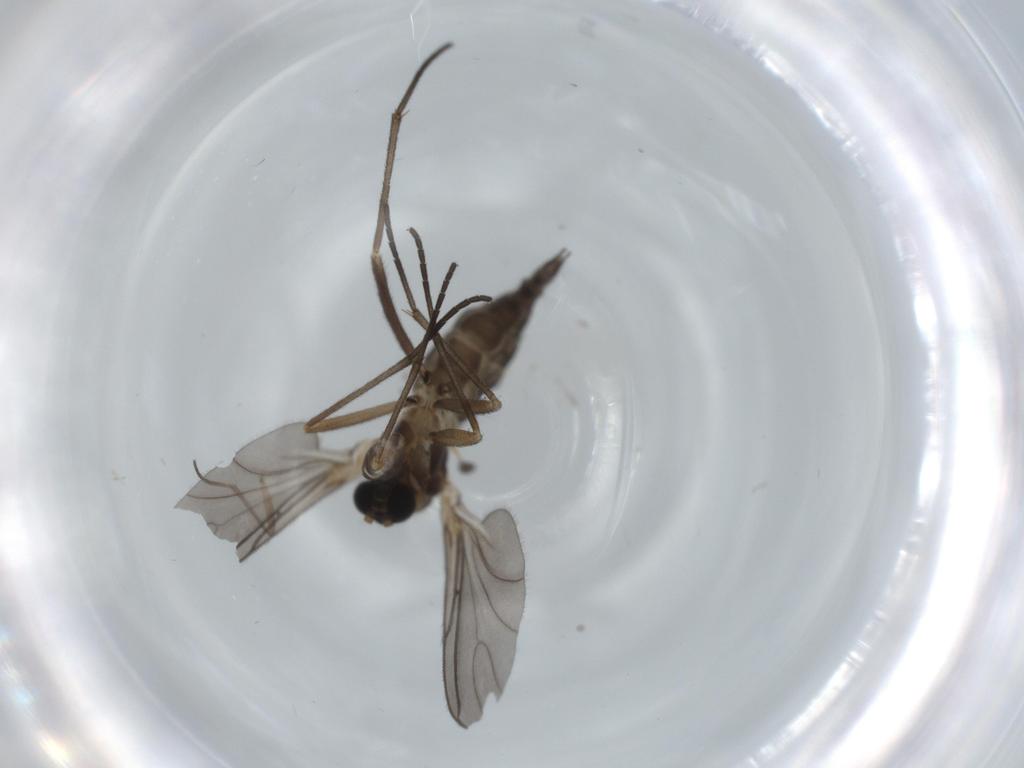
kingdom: Animalia
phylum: Arthropoda
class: Insecta
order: Diptera
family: Sciaridae
